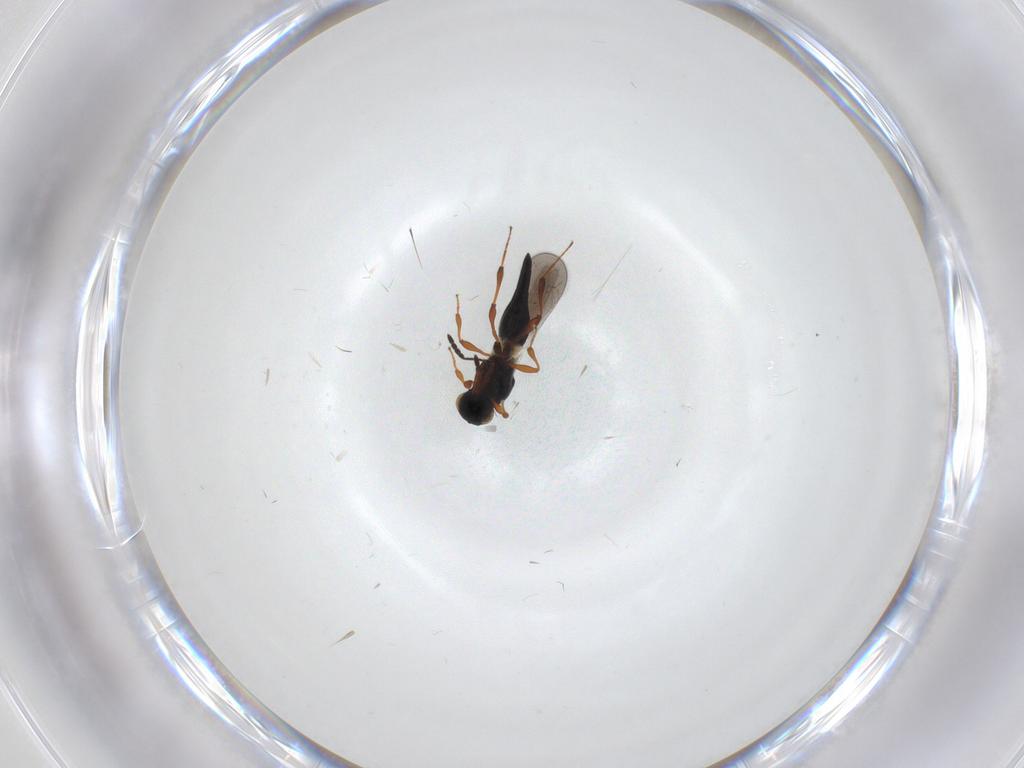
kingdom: Animalia
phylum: Arthropoda
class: Insecta
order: Hymenoptera
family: Platygastridae
